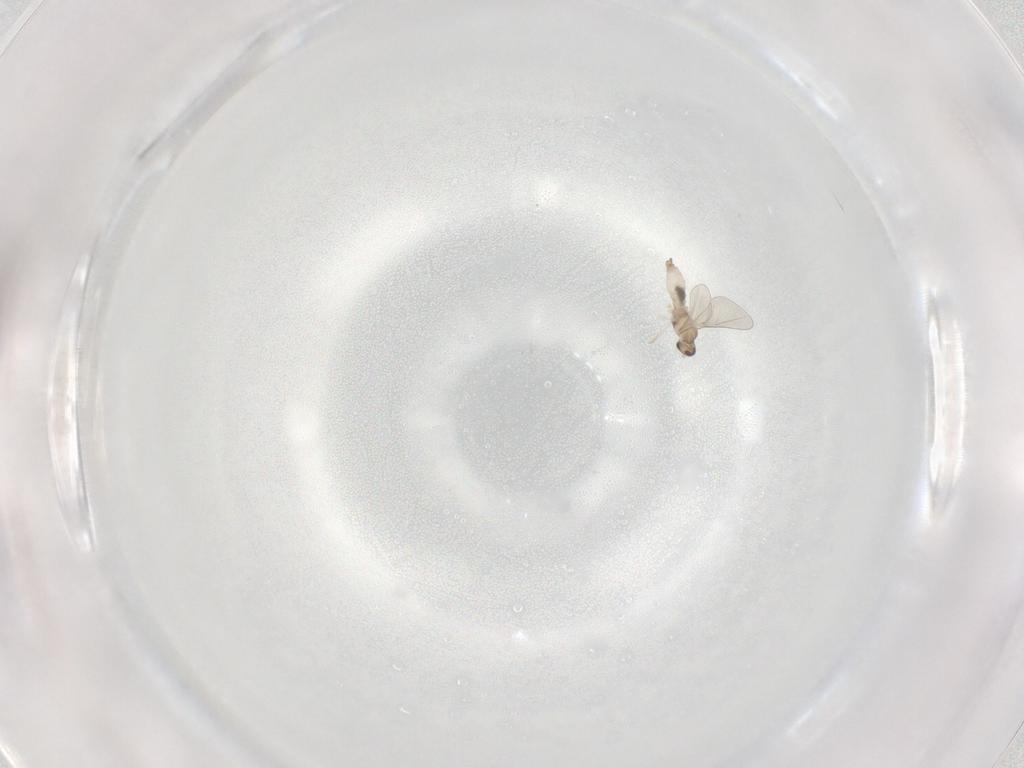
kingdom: Animalia
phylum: Arthropoda
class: Insecta
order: Diptera
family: Cecidomyiidae
